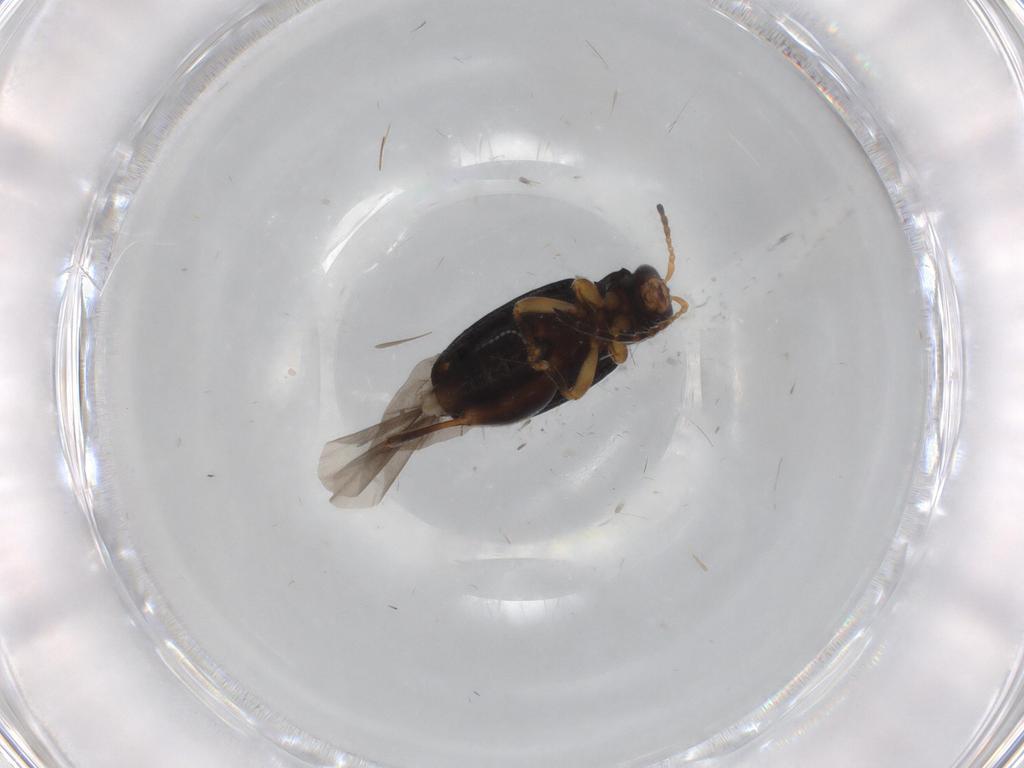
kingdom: Animalia
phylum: Arthropoda
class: Insecta
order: Coleoptera
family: Chrysomelidae
